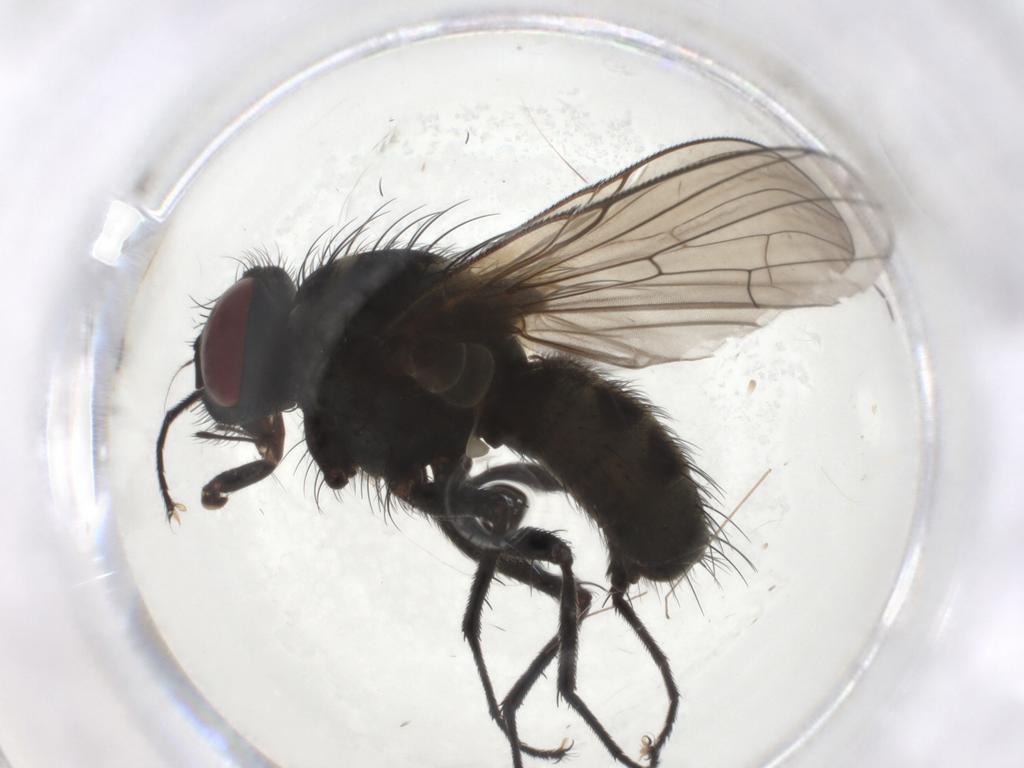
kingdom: Animalia
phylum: Arthropoda
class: Insecta
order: Diptera
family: Muscidae
